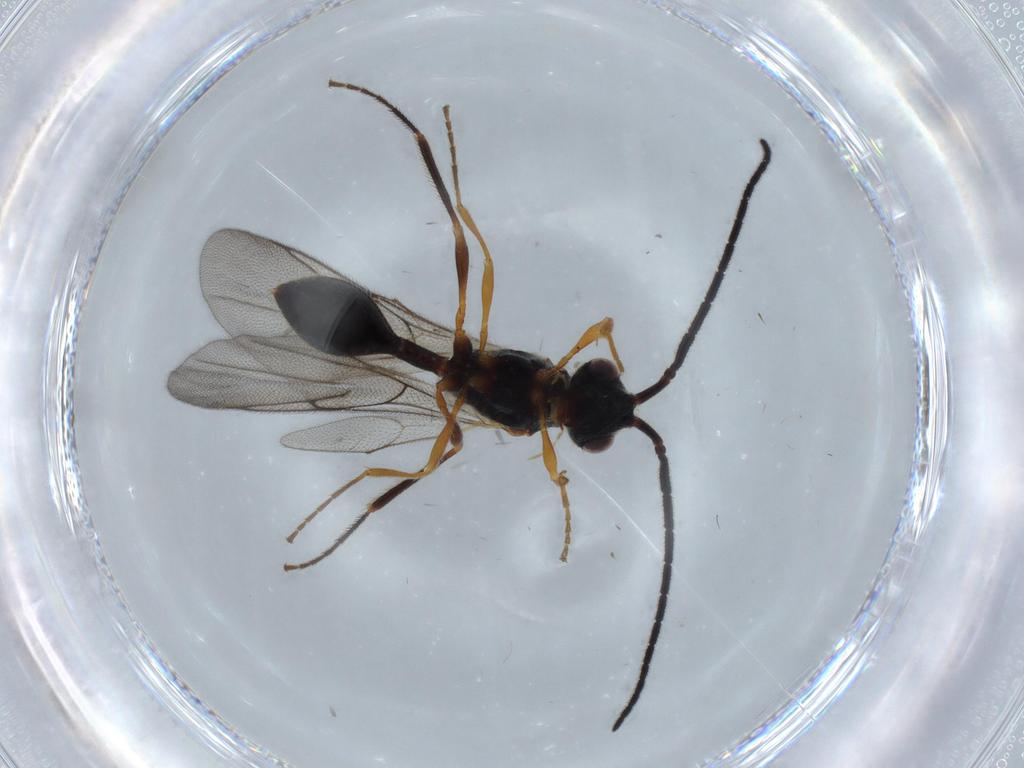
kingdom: Animalia
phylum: Arthropoda
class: Insecta
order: Hymenoptera
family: Diapriidae
